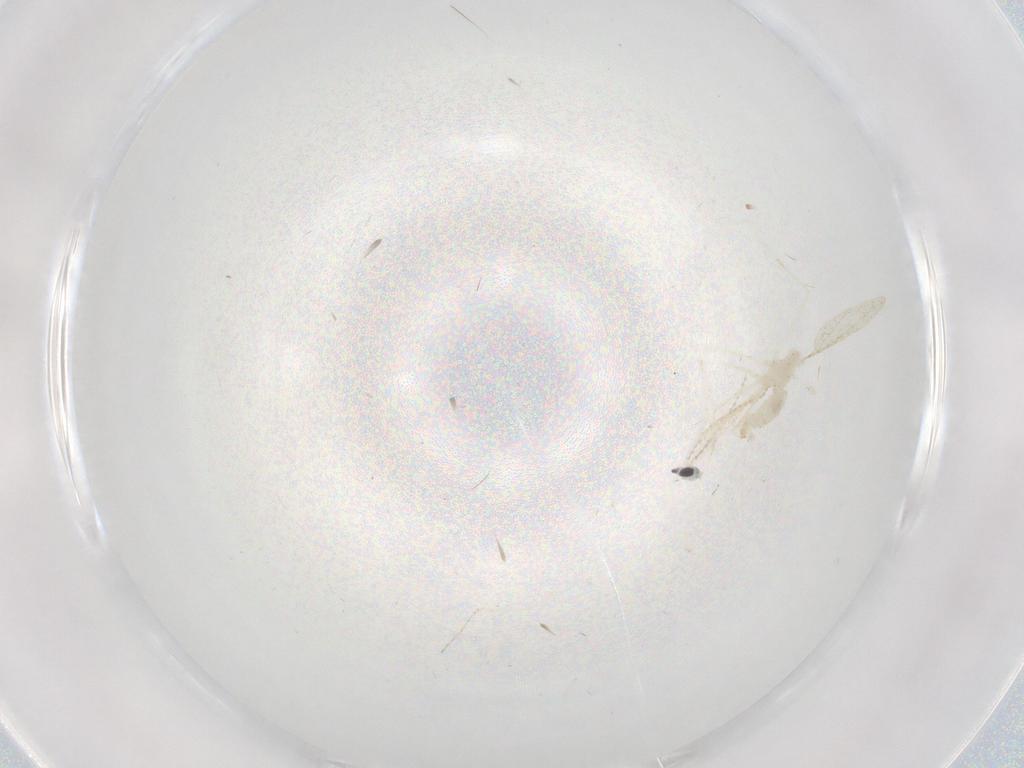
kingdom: Animalia
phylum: Arthropoda
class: Insecta
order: Diptera
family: Cecidomyiidae
